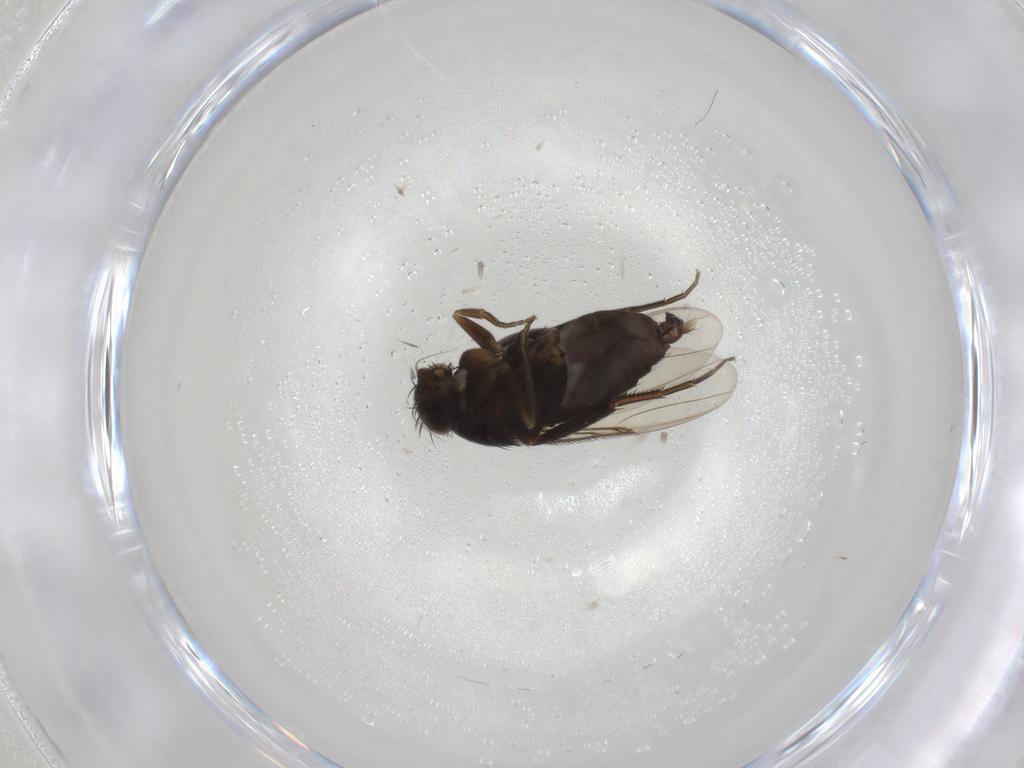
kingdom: Animalia
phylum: Arthropoda
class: Insecta
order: Diptera
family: Phoridae
